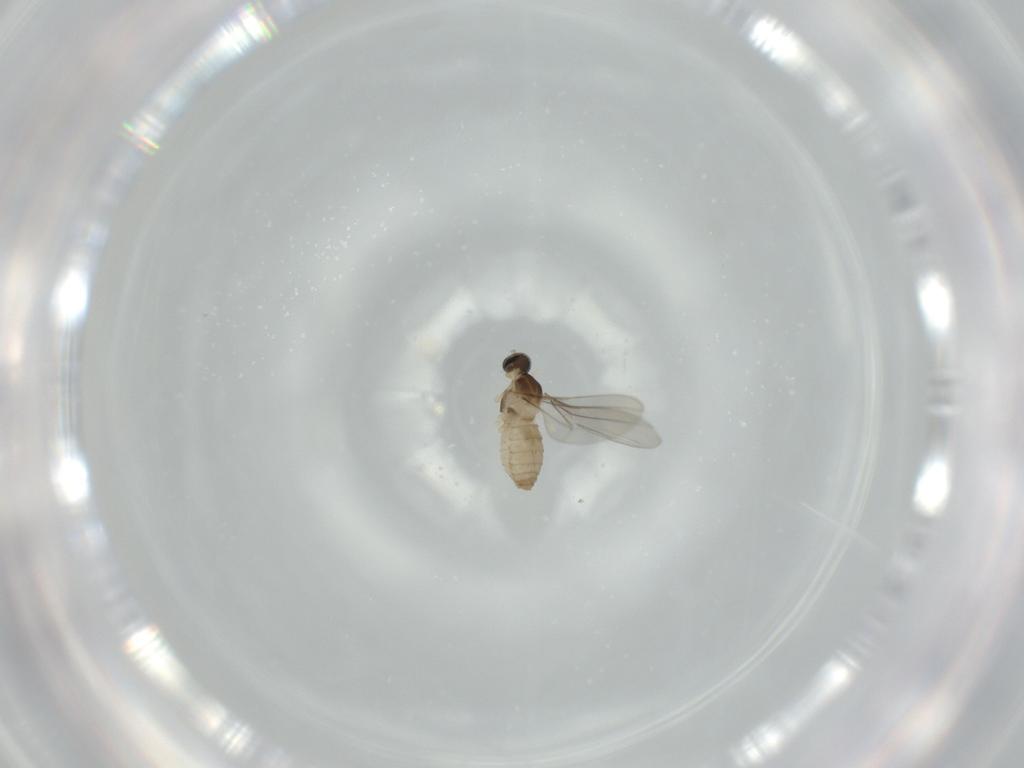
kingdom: Animalia
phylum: Arthropoda
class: Insecta
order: Diptera
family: Cecidomyiidae
